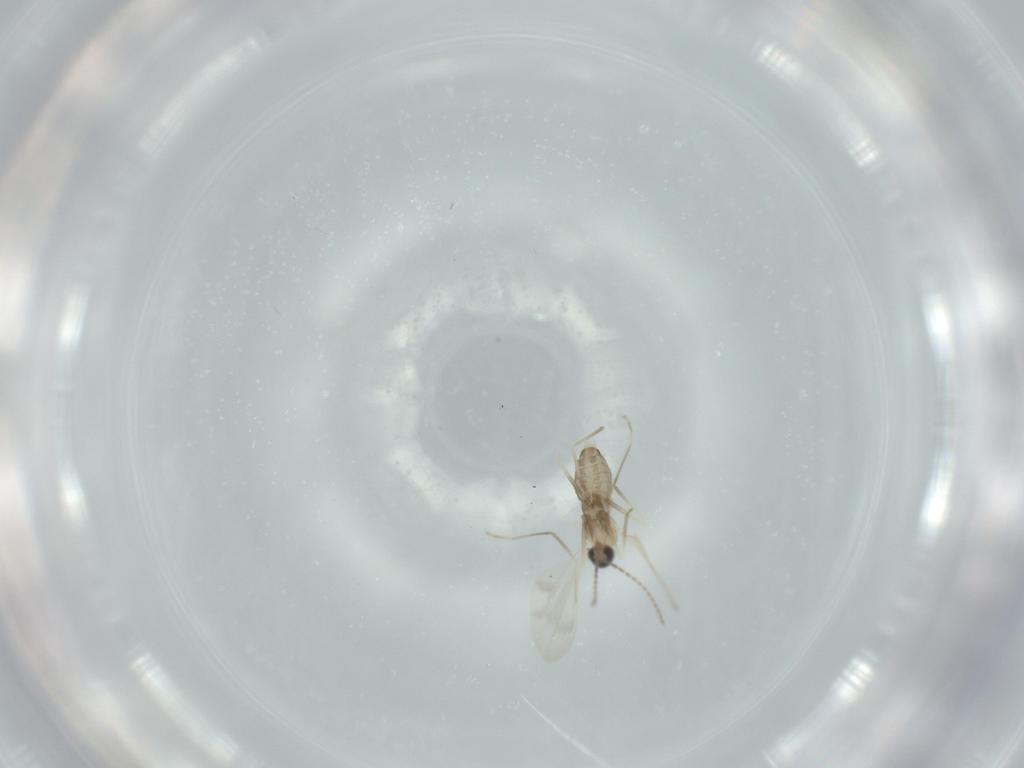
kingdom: Animalia
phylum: Arthropoda
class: Insecta
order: Diptera
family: Cecidomyiidae
